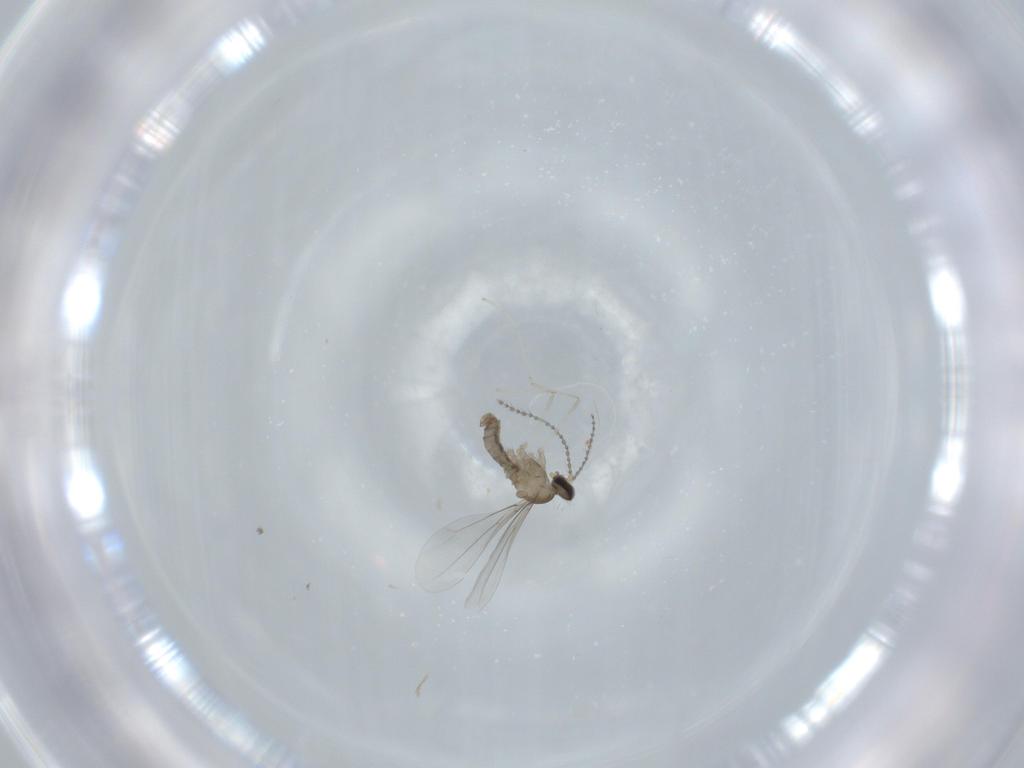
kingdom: Animalia
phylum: Arthropoda
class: Insecta
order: Diptera
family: Cecidomyiidae
